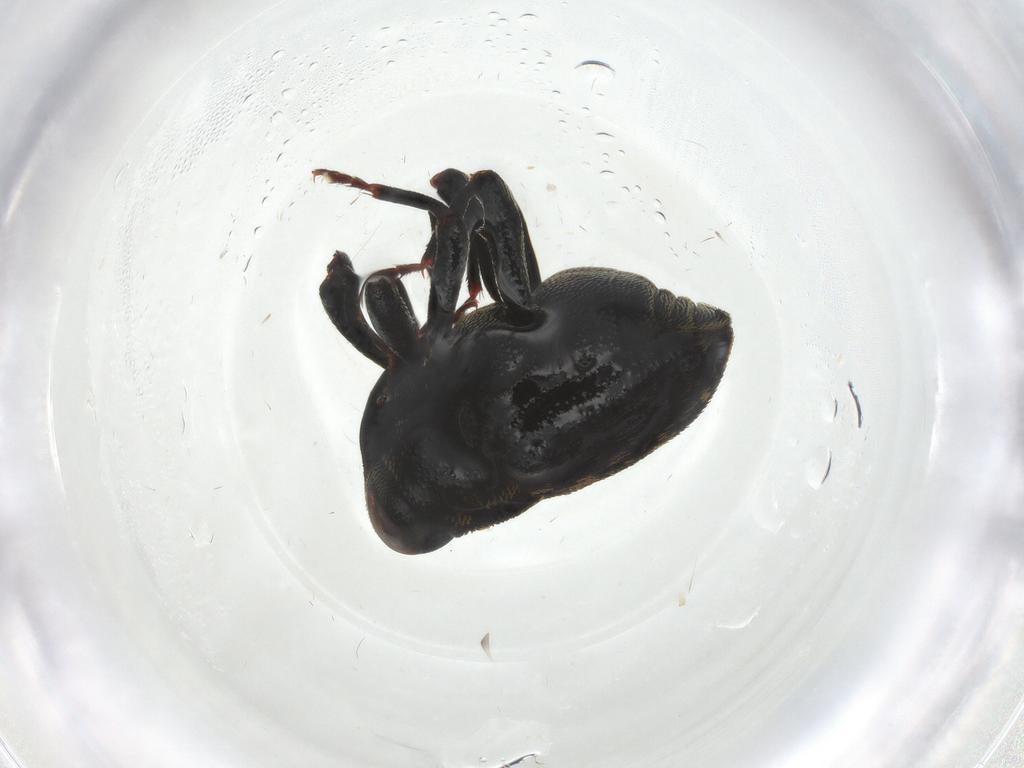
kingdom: Animalia
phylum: Arthropoda
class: Insecta
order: Coleoptera
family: Curculionidae
